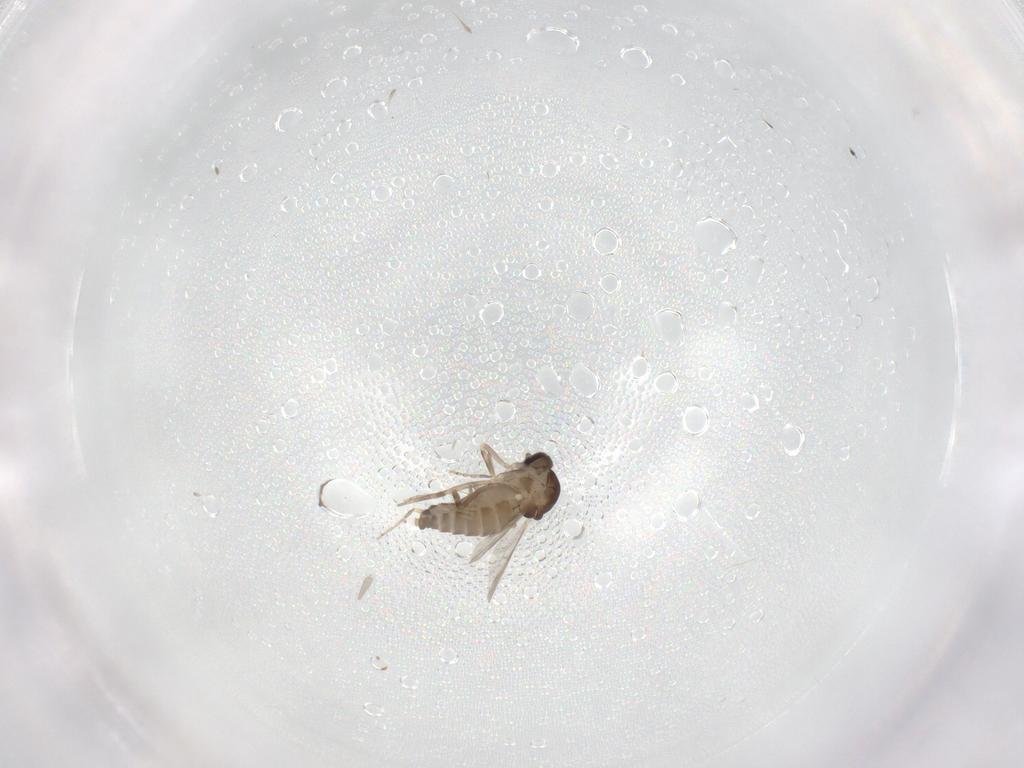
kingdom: Animalia
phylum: Arthropoda
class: Insecta
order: Diptera
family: Ceratopogonidae
